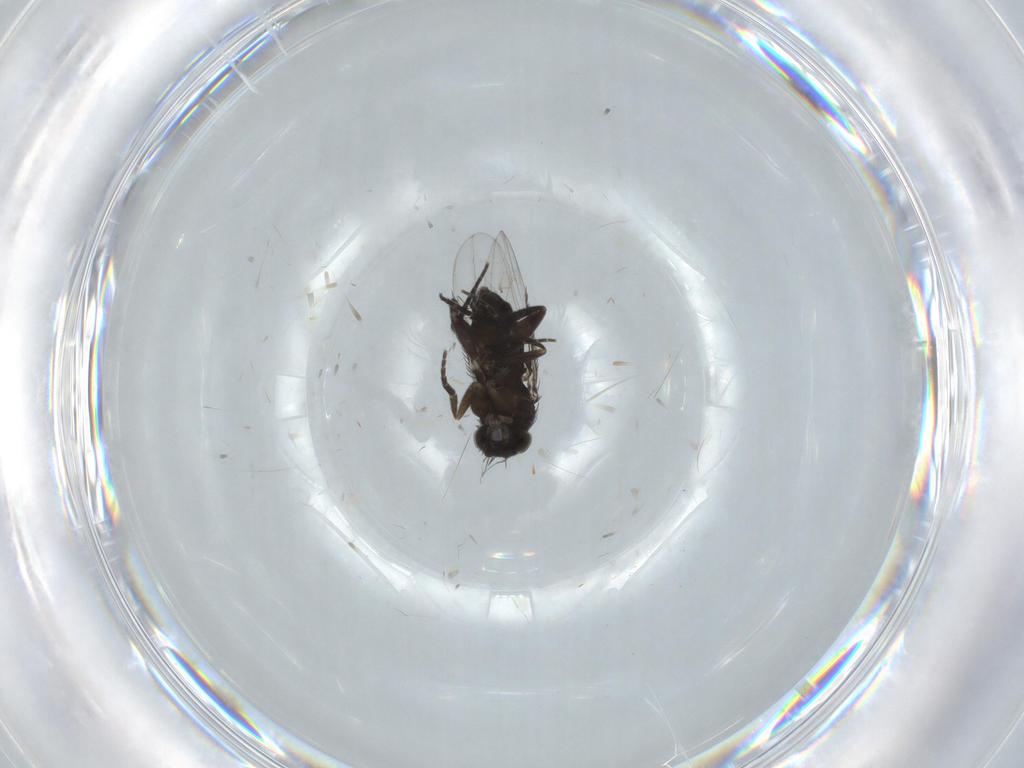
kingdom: Animalia
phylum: Arthropoda
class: Insecta
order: Diptera
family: Phoridae
